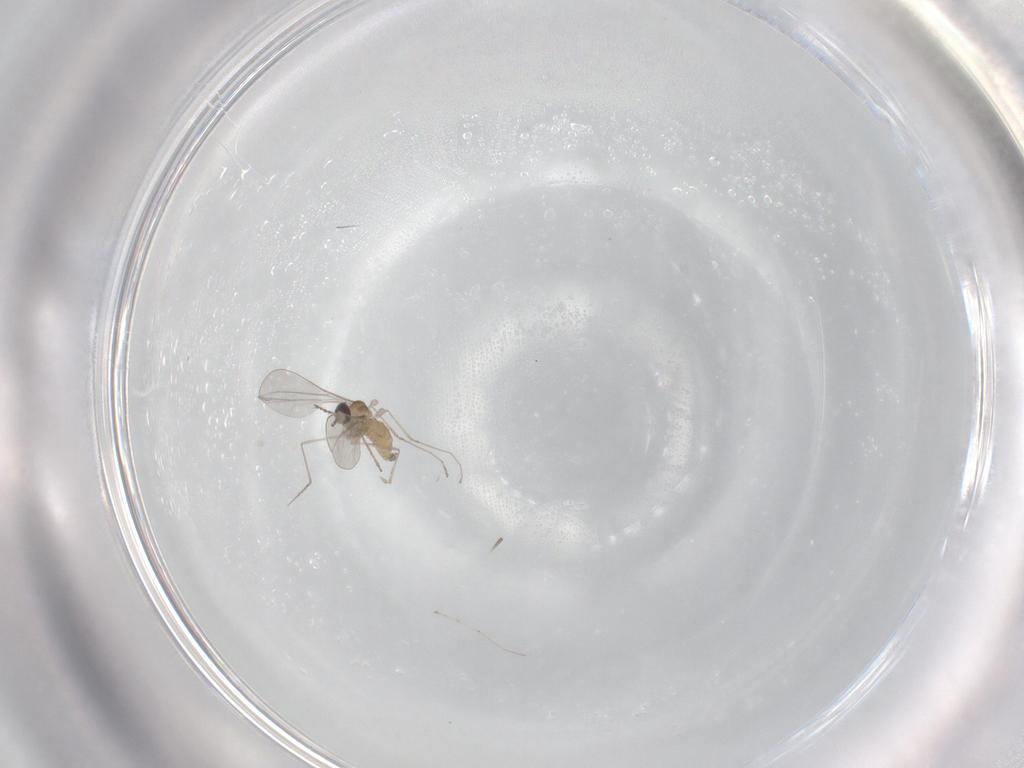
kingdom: Animalia
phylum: Arthropoda
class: Insecta
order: Diptera
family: Cecidomyiidae
